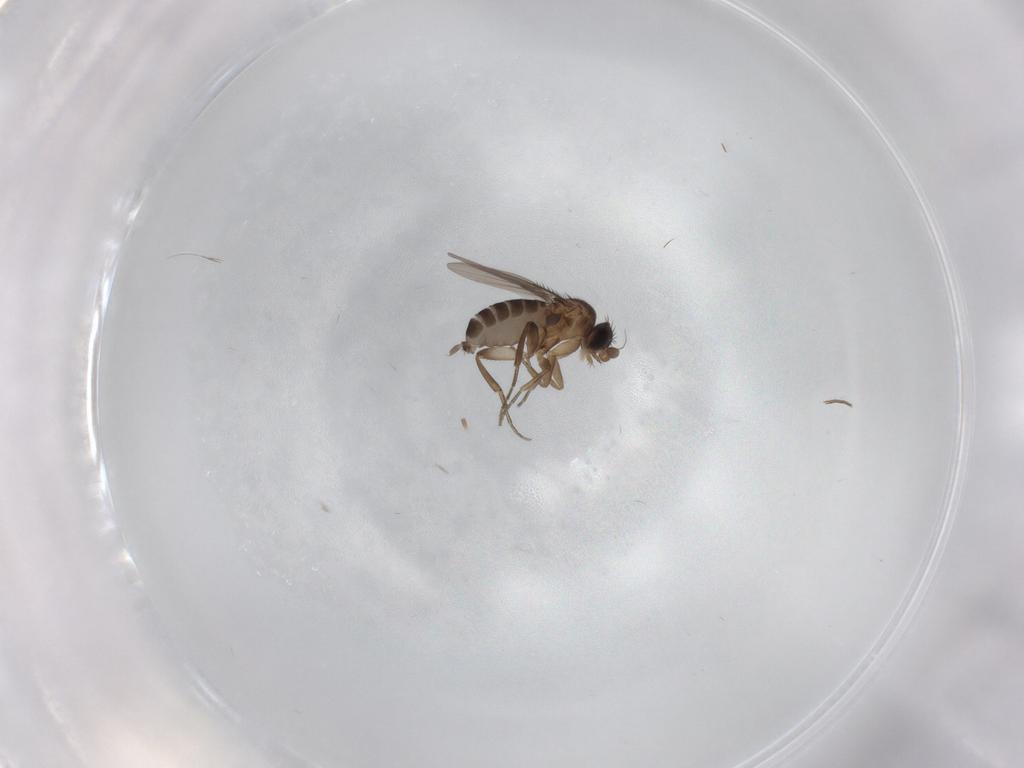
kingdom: Animalia
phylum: Arthropoda
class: Insecta
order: Diptera
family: Phoridae
